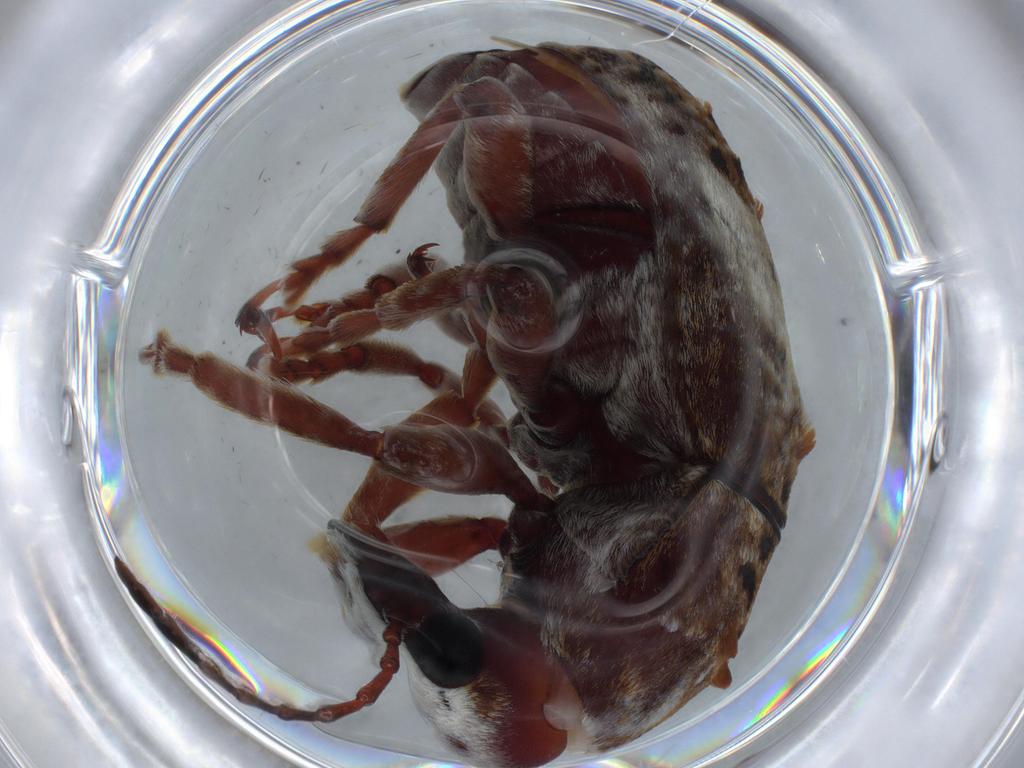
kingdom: Animalia
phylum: Arthropoda
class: Insecta
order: Coleoptera
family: Anthribidae
